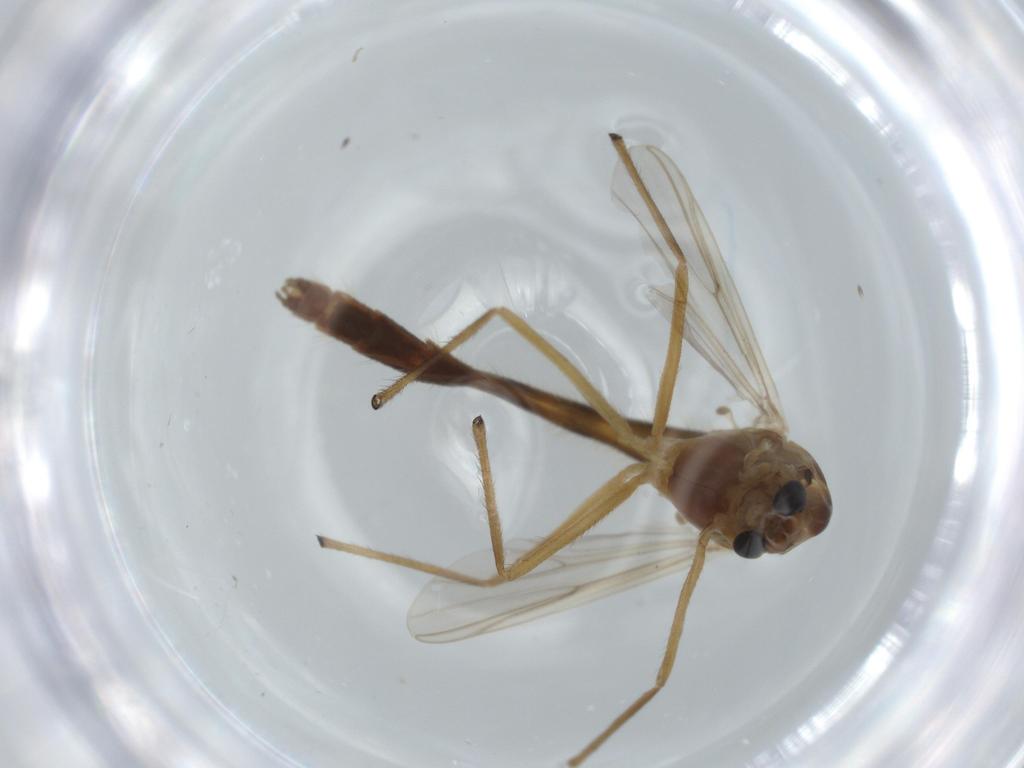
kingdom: Animalia
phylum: Arthropoda
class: Insecta
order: Diptera
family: Chironomidae
